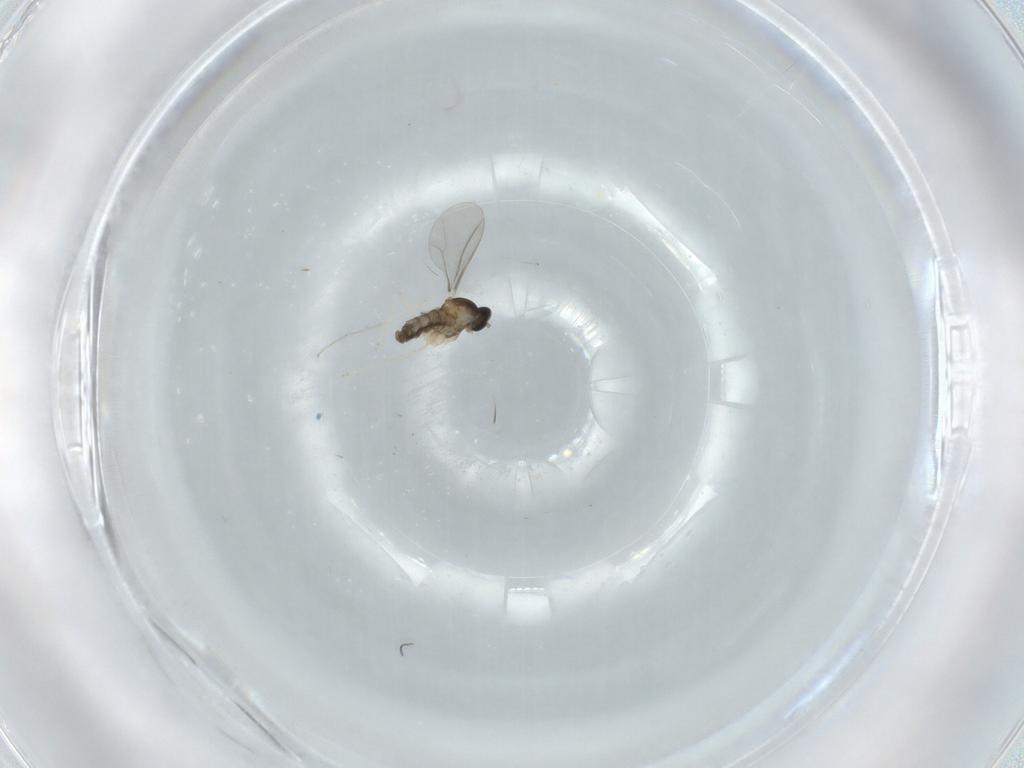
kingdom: Animalia
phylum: Arthropoda
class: Insecta
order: Diptera
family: Cecidomyiidae
